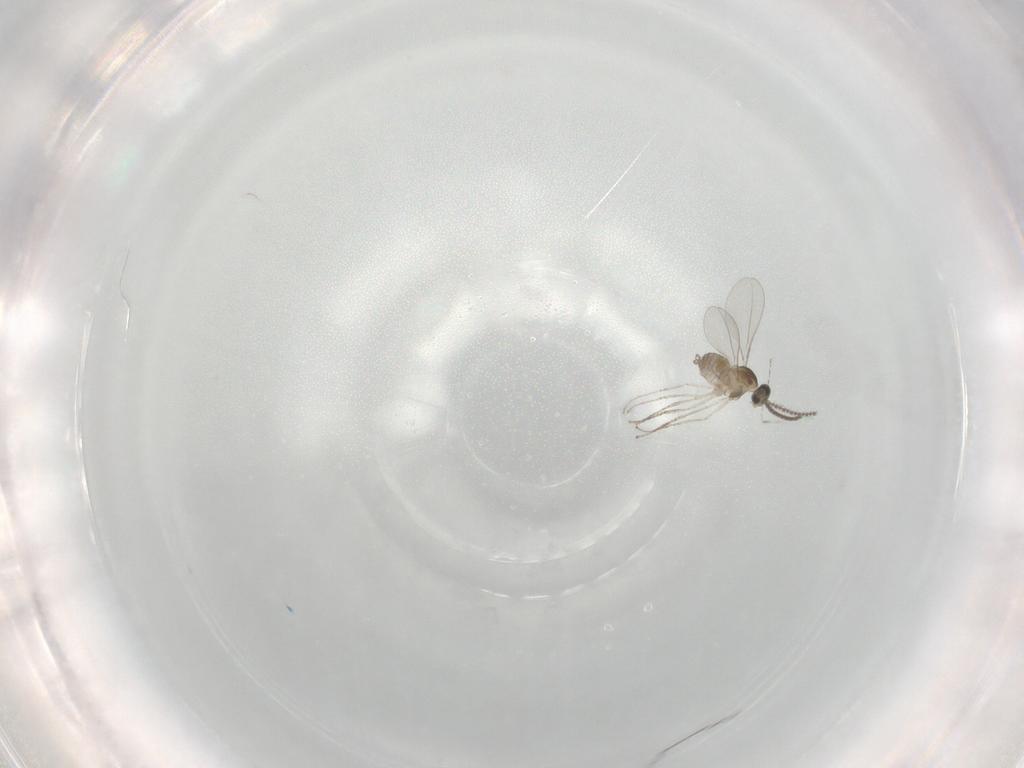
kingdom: Animalia
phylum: Arthropoda
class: Insecta
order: Diptera
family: Cecidomyiidae
